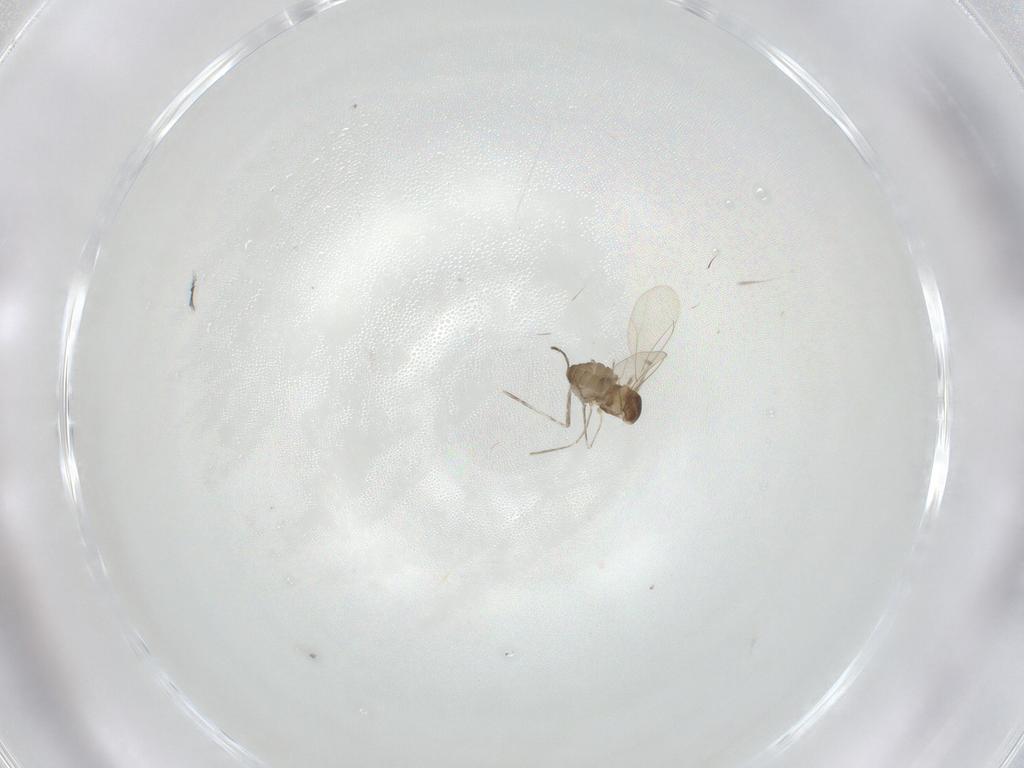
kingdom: Animalia
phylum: Arthropoda
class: Insecta
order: Diptera
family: Cecidomyiidae
